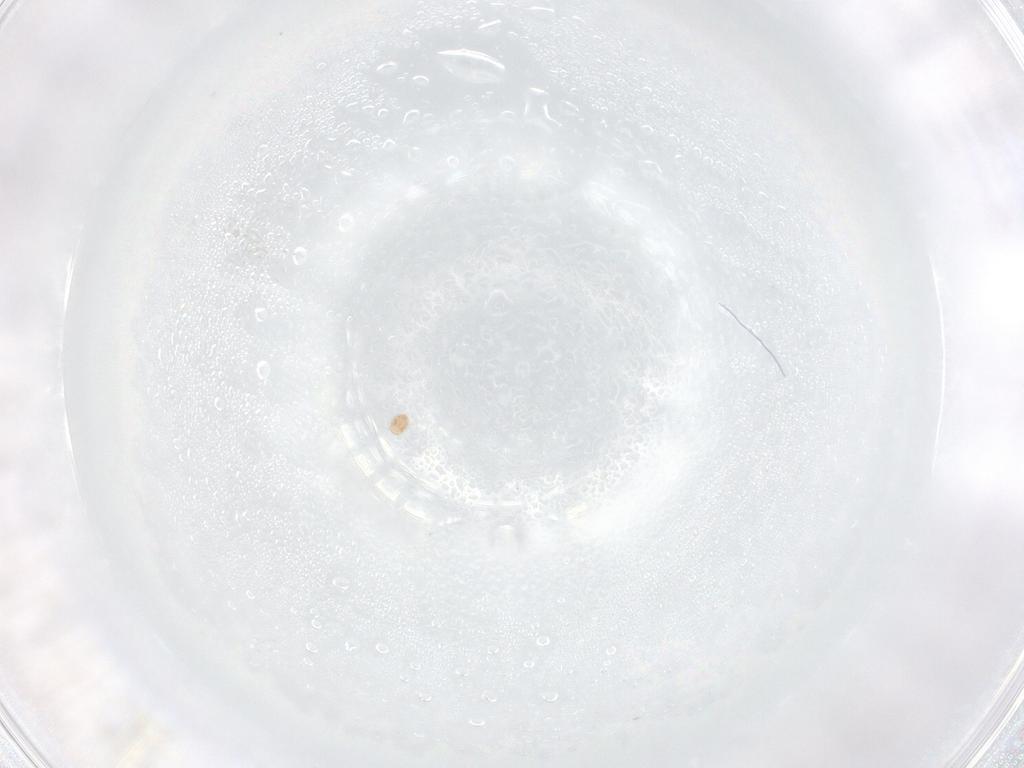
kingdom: Animalia
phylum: Arthropoda
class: Arachnida
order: Trombidiformes
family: Scutacaridae
